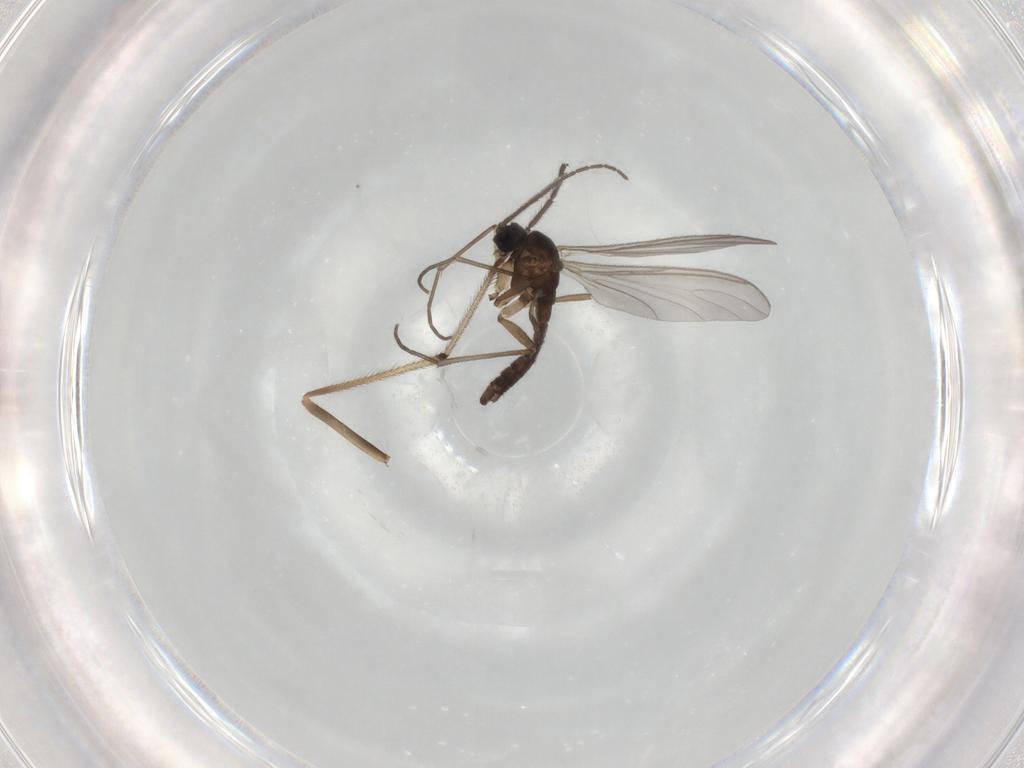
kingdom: Animalia
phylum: Arthropoda
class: Insecta
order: Diptera
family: Sciaridae
